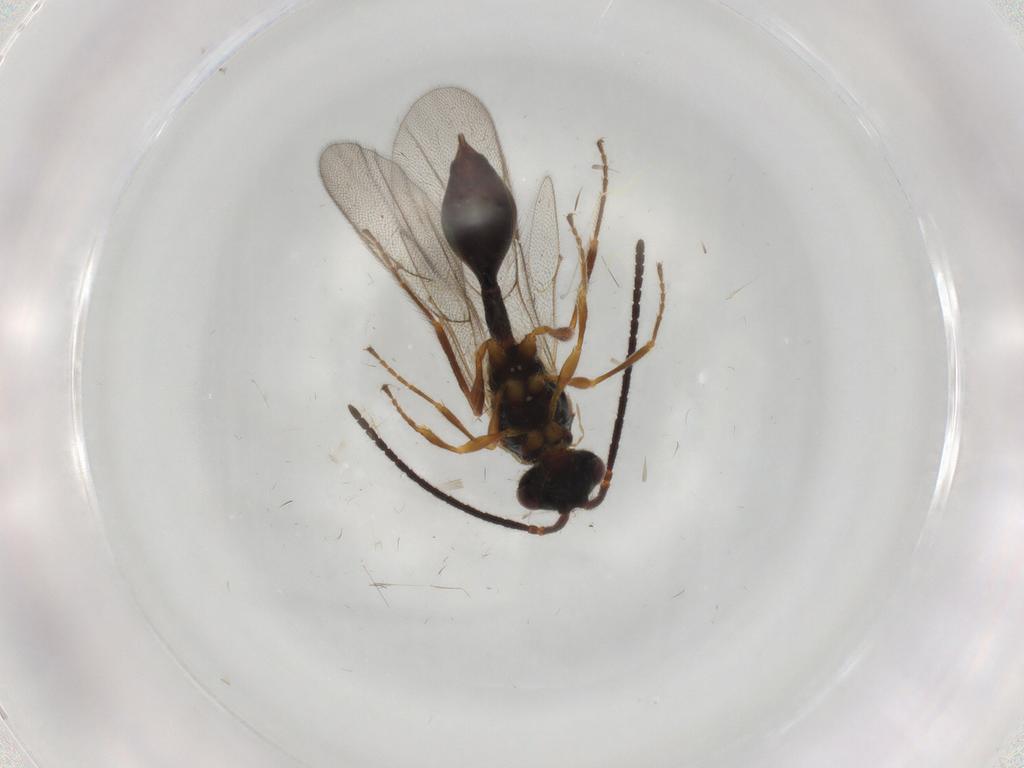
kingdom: Animalia
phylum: Arthropoda
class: Insecta
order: Hymenoptera
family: Diapriidae
